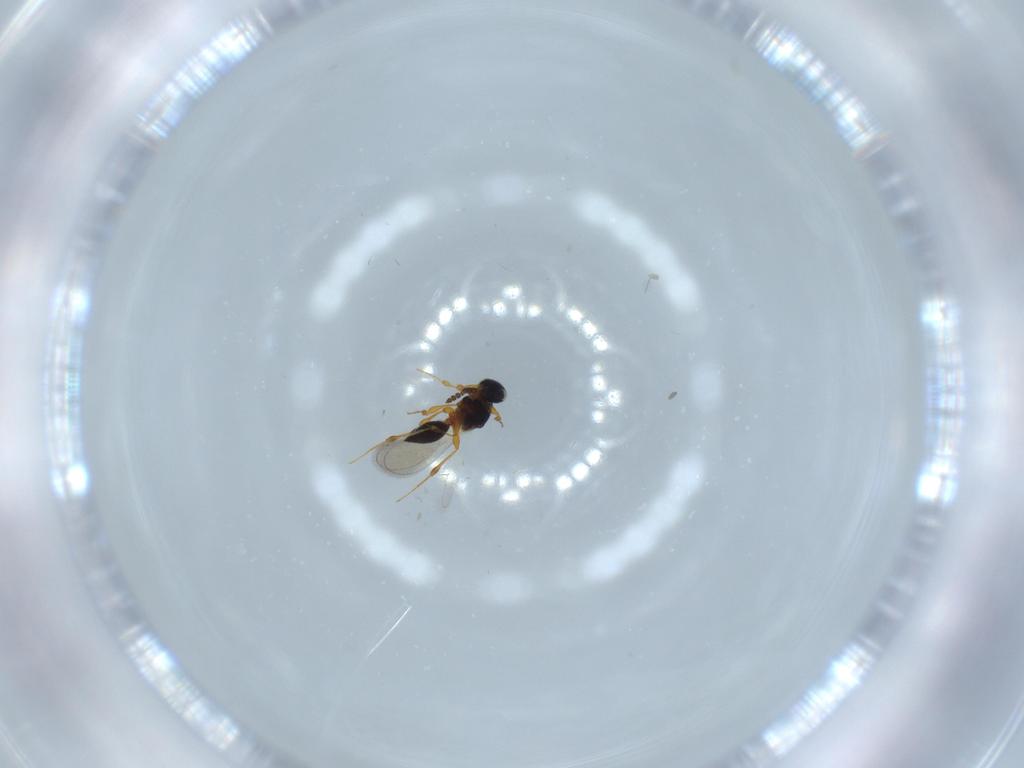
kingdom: Animalia
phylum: Arthropoda
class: Insecta
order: Hymenoptera
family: Platygastridae
